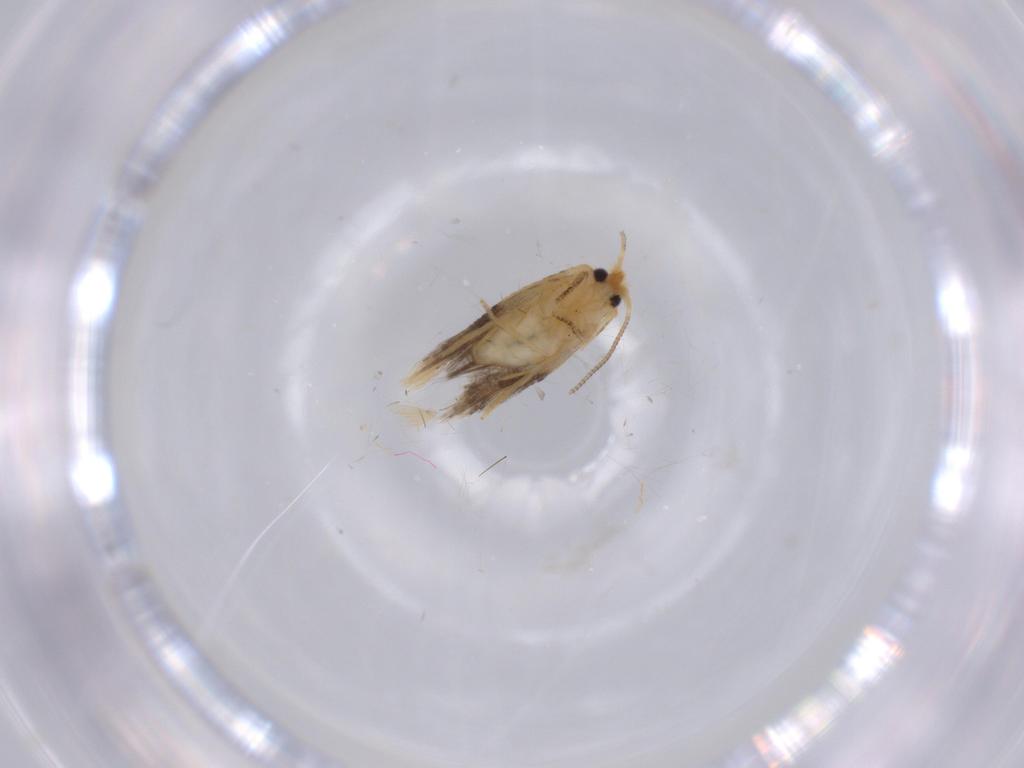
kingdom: Animalia
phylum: Arthropoda
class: Insecta
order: Lepidoptera
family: Nepticulidae
